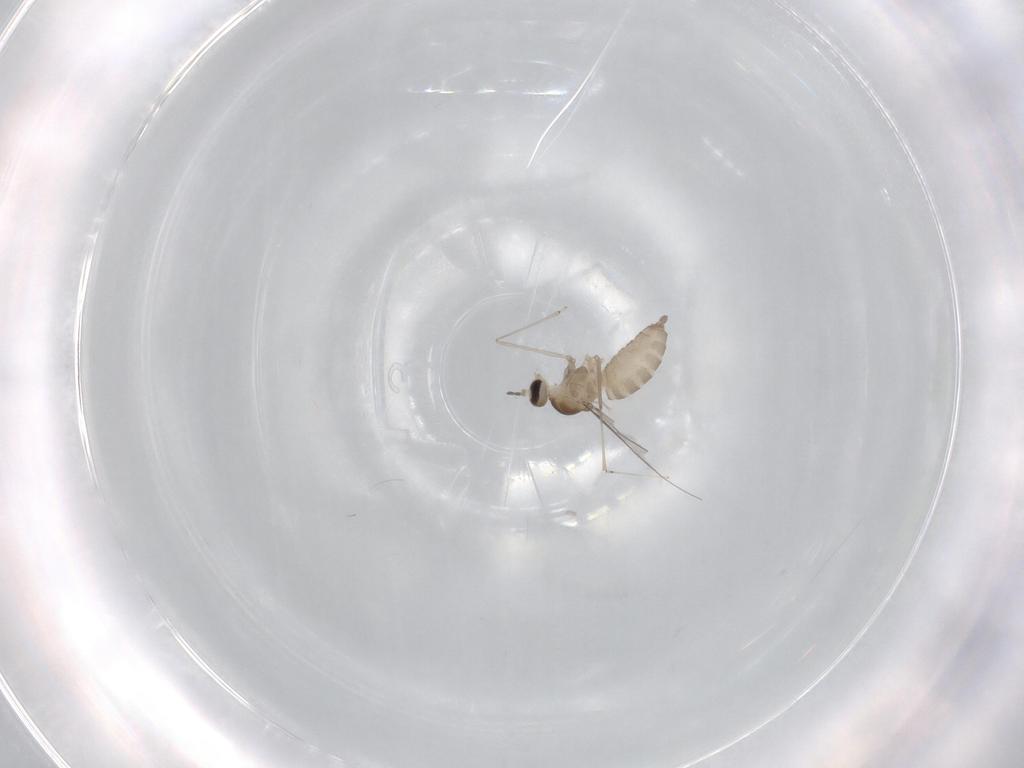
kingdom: Animalia
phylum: Arthropoda
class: Insecta
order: Diptera
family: Cecidomyiidae
